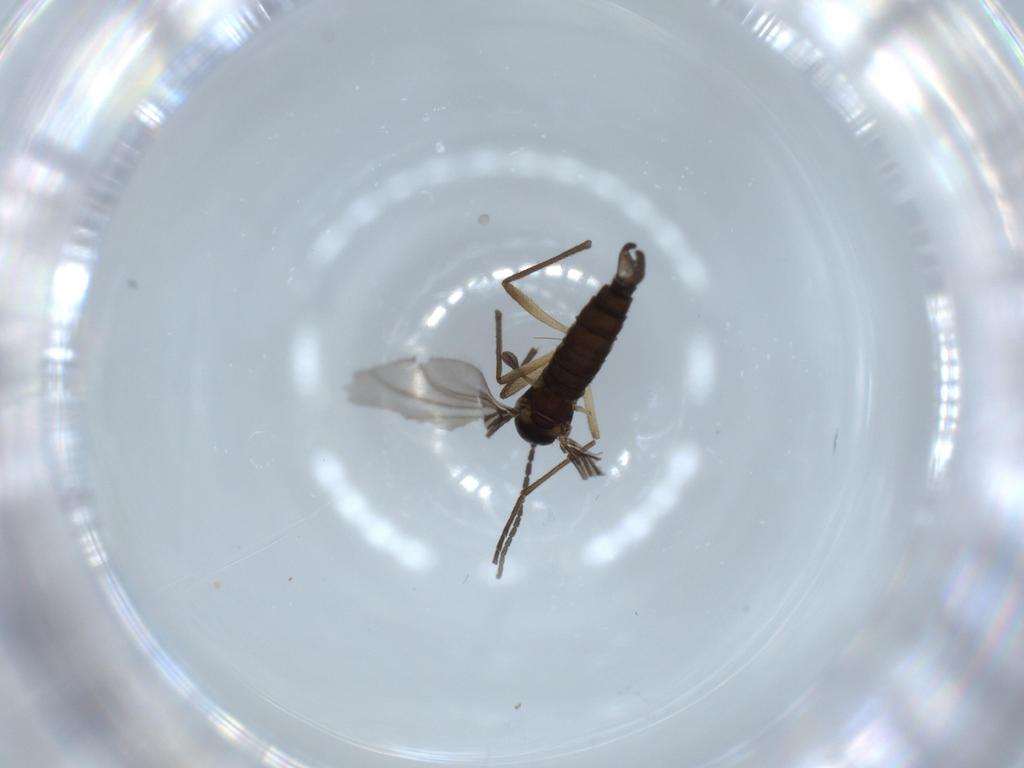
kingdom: Animalia
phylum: Arthropoda
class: Insecta
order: Diptera
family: Sciaridae
